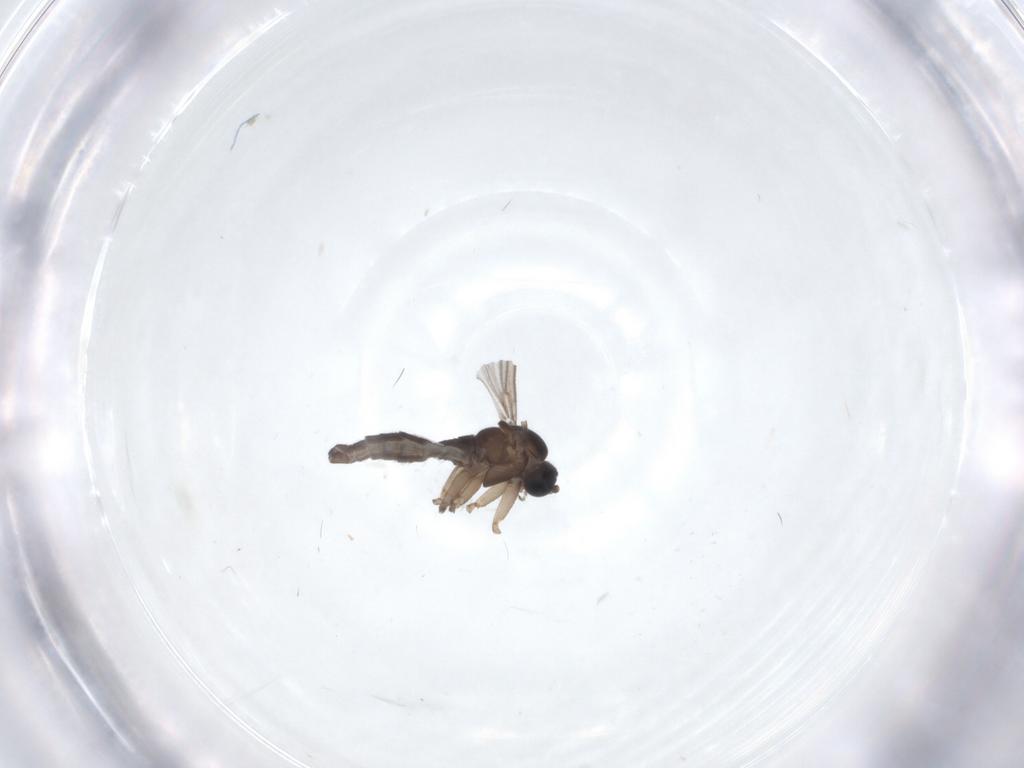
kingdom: Animalia
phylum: Arthropoda
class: Insecta
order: Diptera
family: Sciaridae
